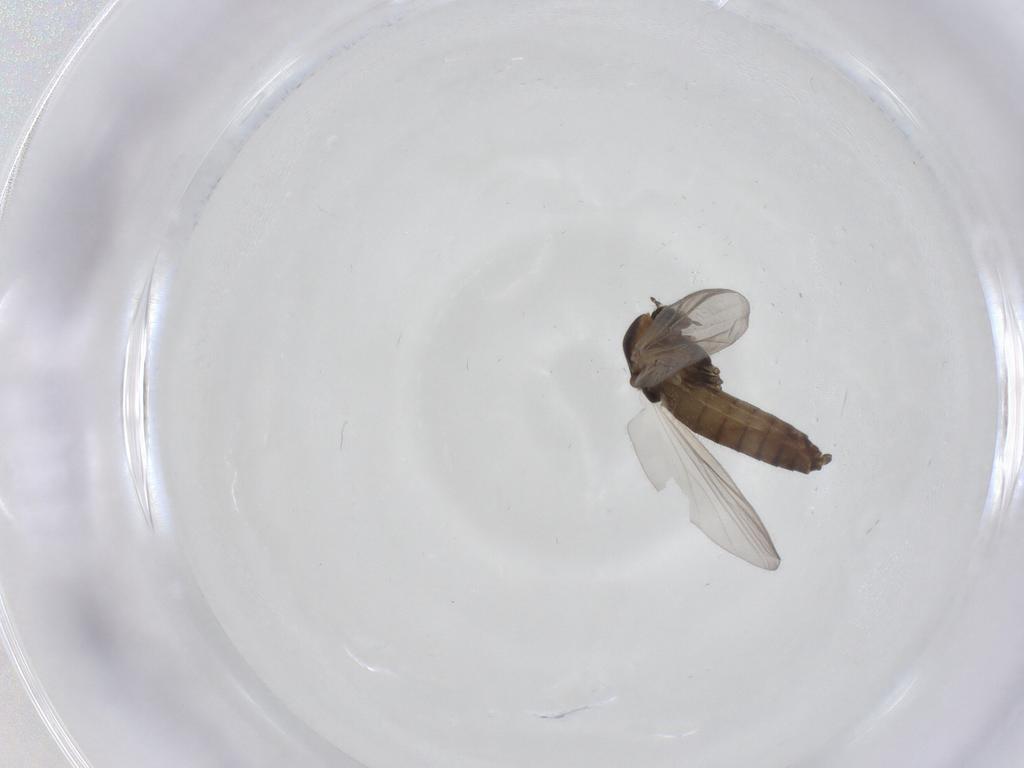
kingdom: Animalia
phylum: Arthropoda
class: Insecta
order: Diptera
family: Chironomidae
